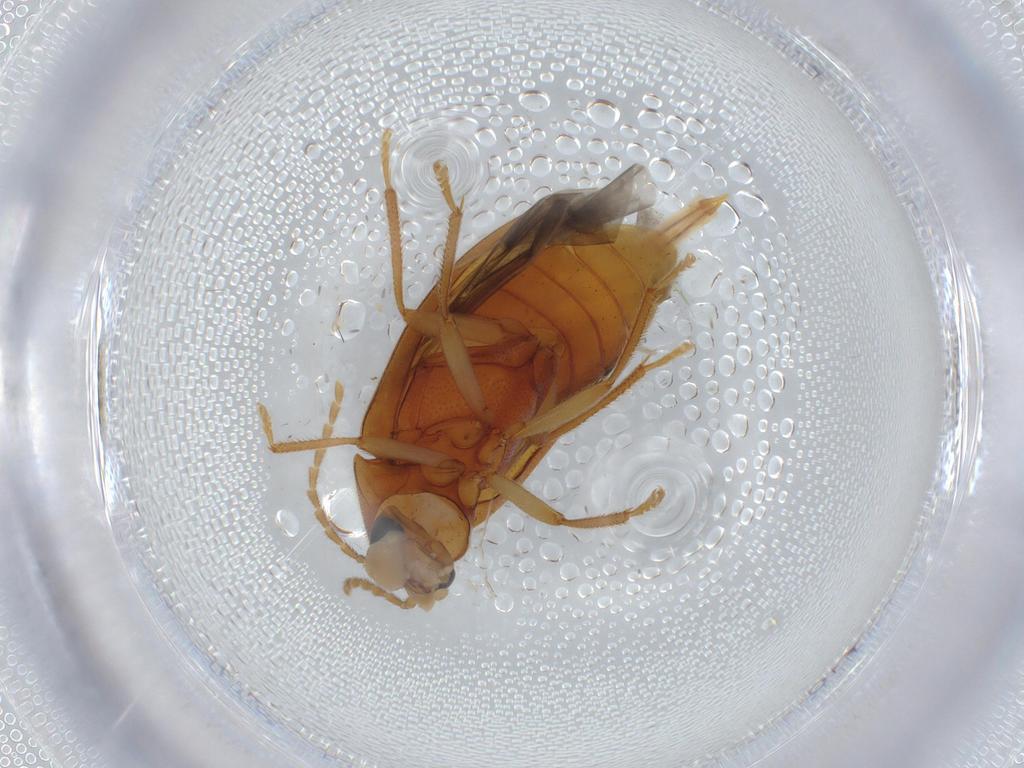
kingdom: Animalia
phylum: Arthropoda
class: Insecta
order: Coleoptera
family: Ptilodactylidae
